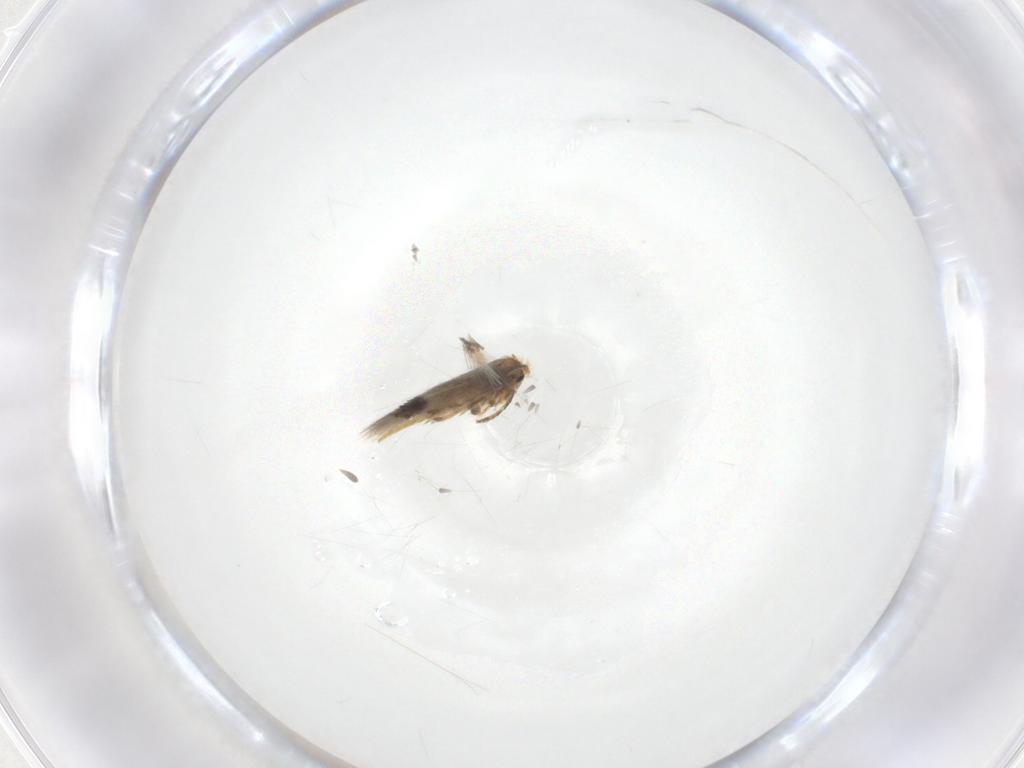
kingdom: Animalia
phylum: Arthropoda
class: Insecta
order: Lepidoptera
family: Nepticulidae
